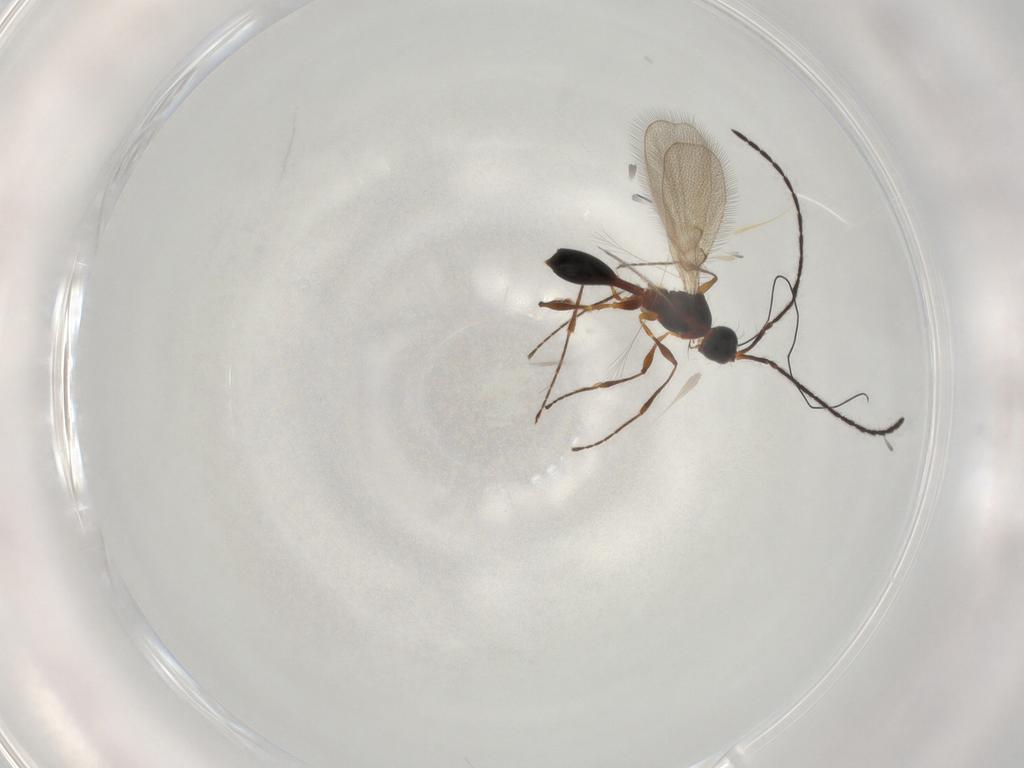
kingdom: Animalia
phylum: Arthropoda
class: Insecta
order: Hymenoptera
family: Diapriidae
